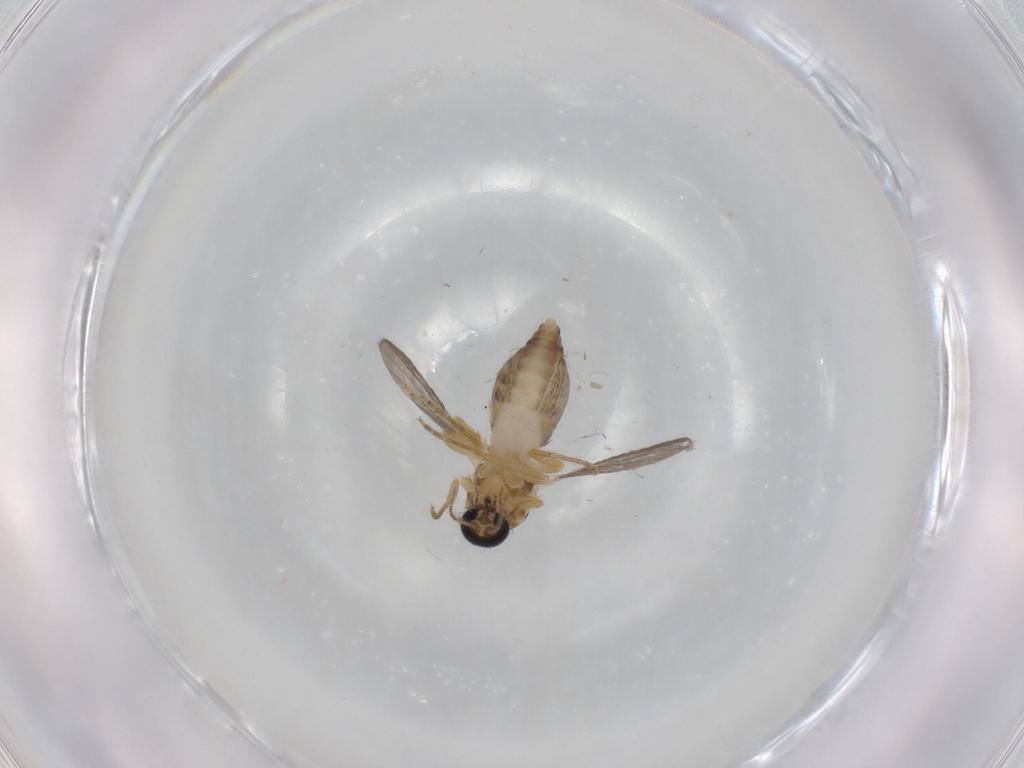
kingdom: Animalia
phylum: Arthropoda
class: Insecta
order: Diptera
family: Ceratopogonidae
